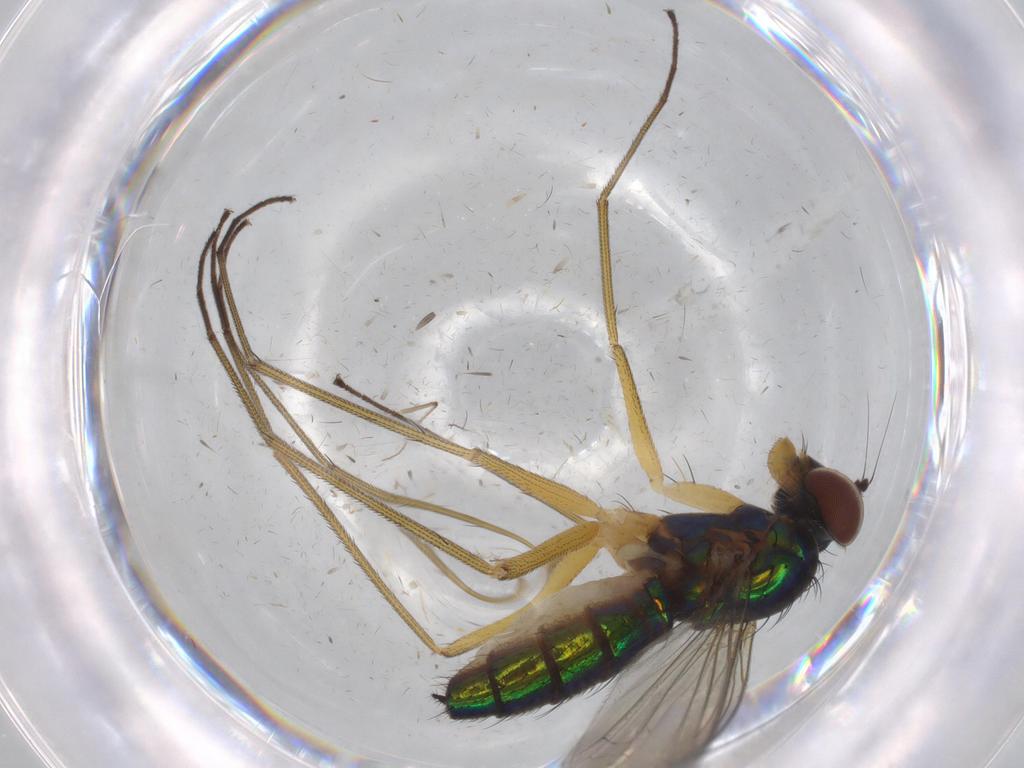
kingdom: Animalia
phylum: Arthropoda
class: Insecta
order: Diptera
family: Dolichopodidae
